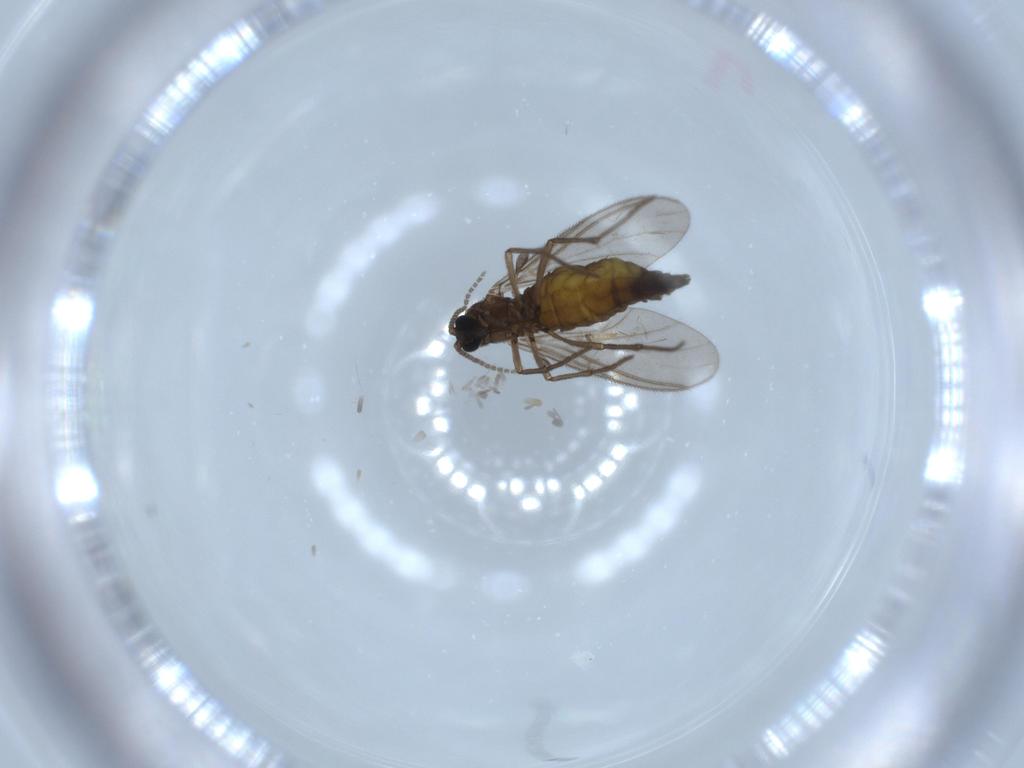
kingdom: Animalia
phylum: Arthropoda
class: Insecta
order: Diptera
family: Sciaridae
